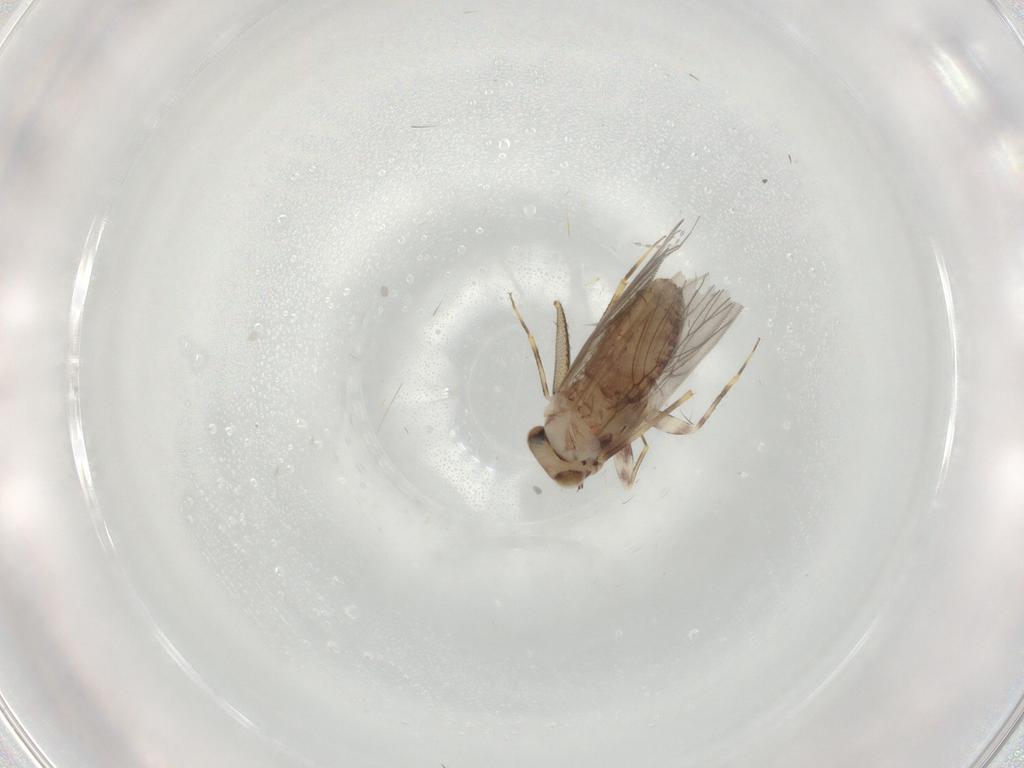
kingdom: Animalia
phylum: Arthropoda
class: Insecta
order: Psocodea
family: Lepidopsocidae
